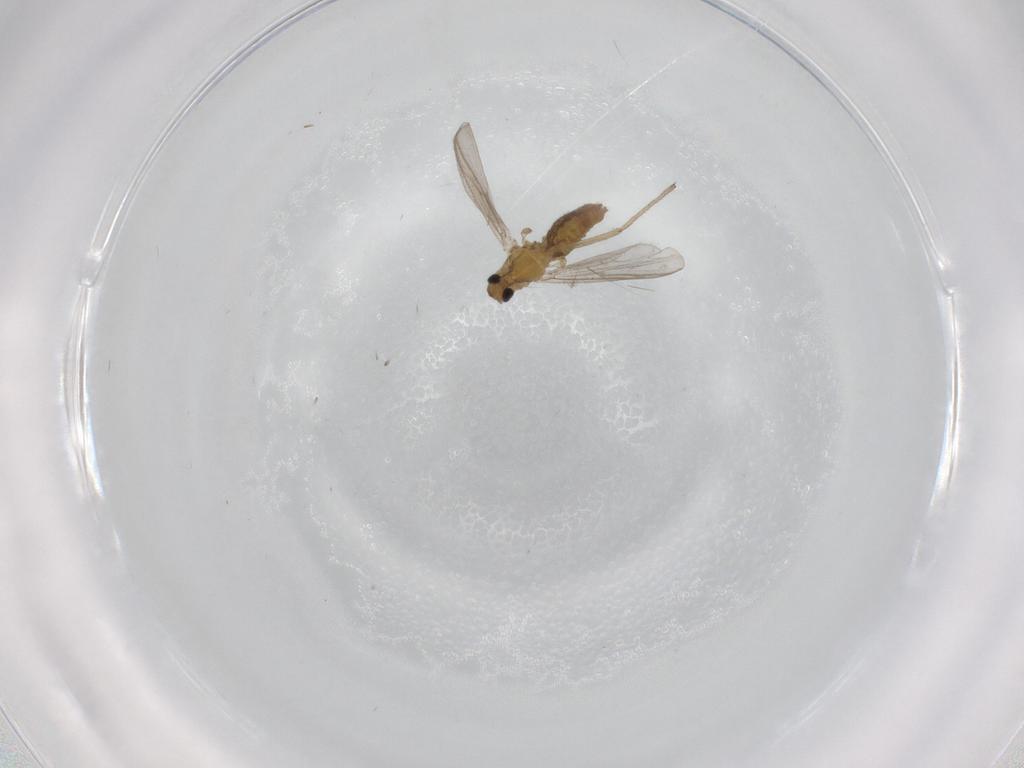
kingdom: Animalia
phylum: Arthropoda
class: Insecta
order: Diptera
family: Chironomidae
